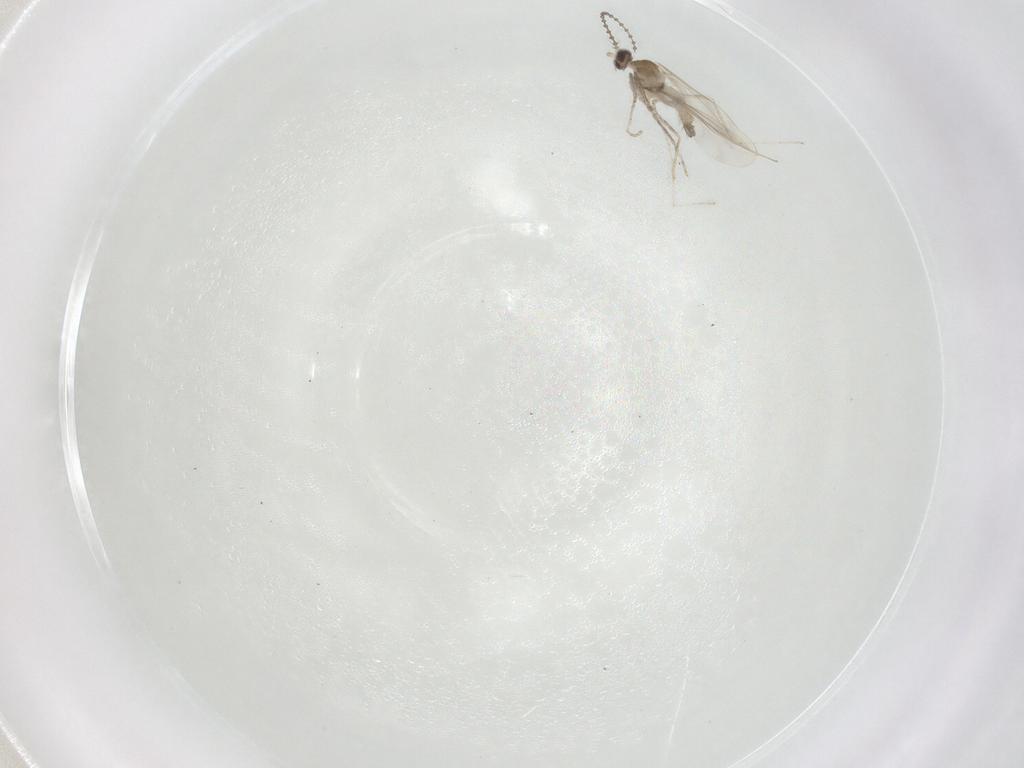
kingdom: Animalia
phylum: Arthropoda
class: Insecta
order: Diptera
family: Cecidomyiidae
